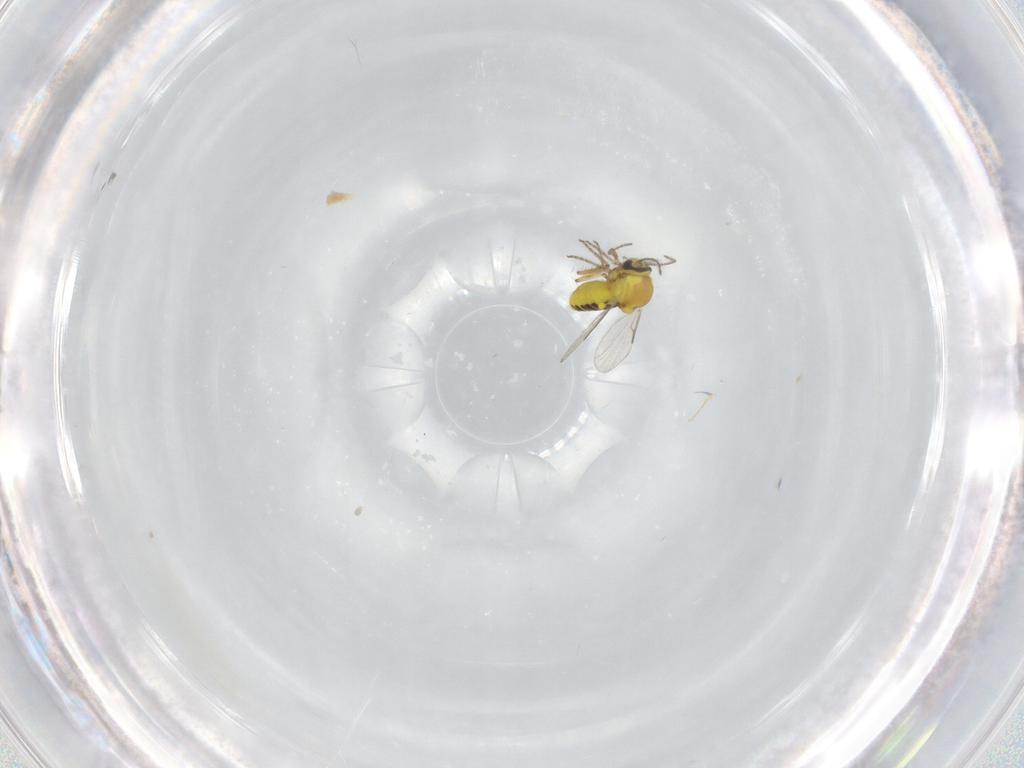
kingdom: Animalia
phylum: Arthropoda
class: Insecta
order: Diptera
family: Ceratopogonidae
